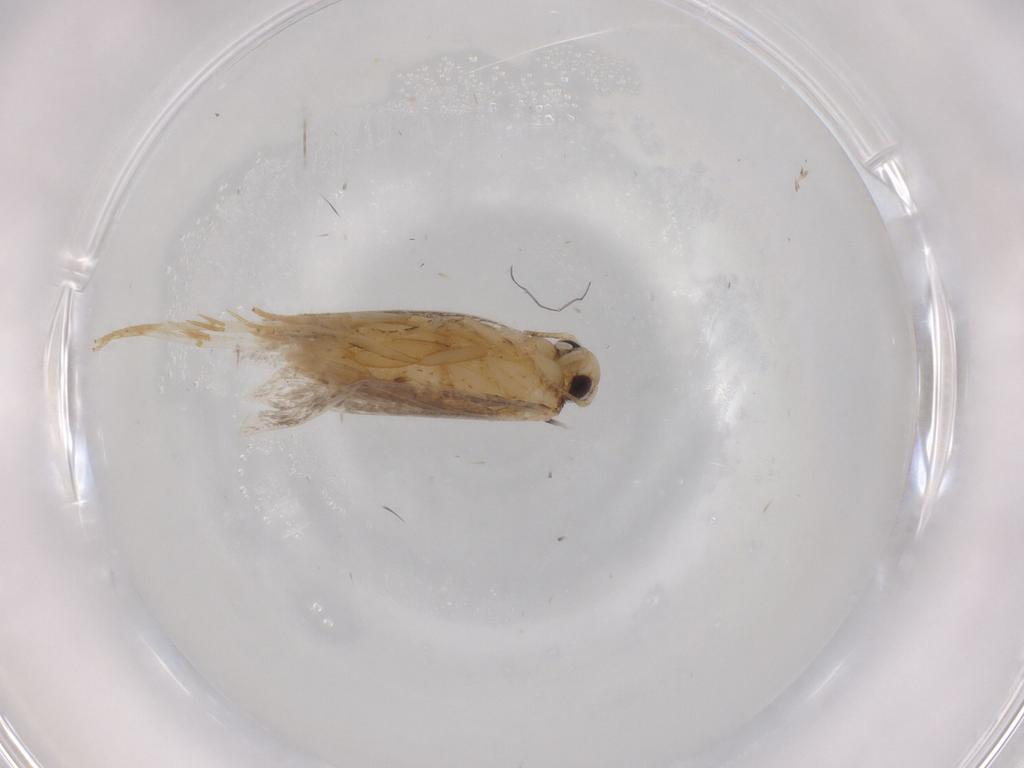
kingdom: Animalia
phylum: Arthropoda
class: Insecta
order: Lepidoptera
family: Autostichidae
